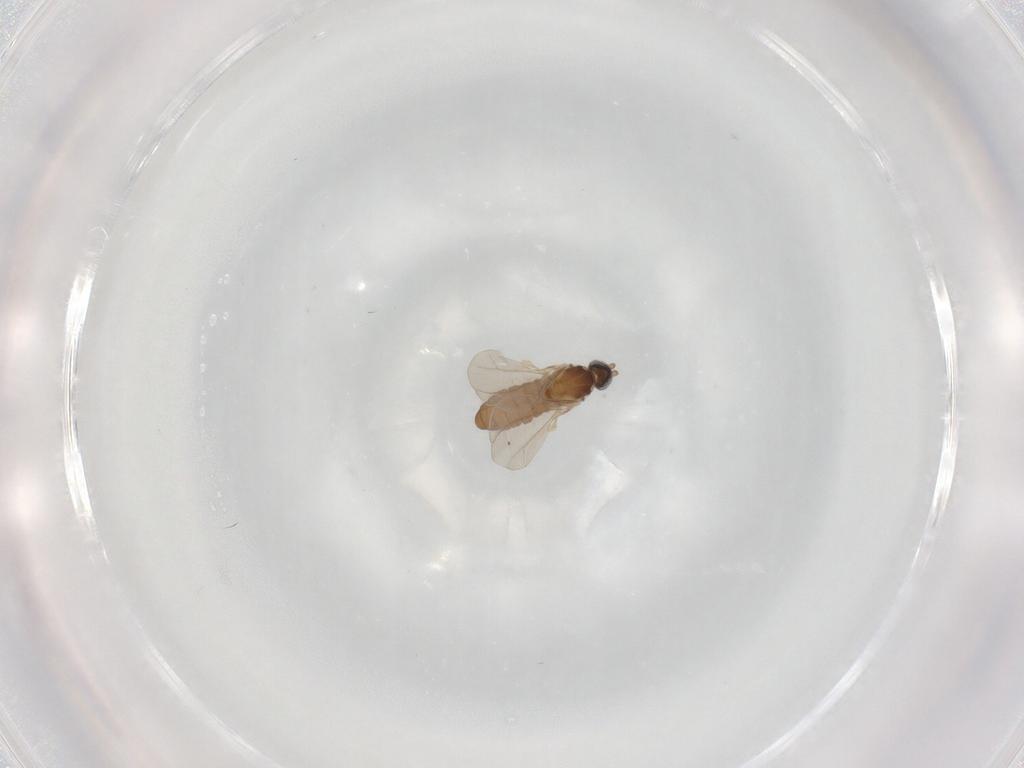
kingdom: Animalia
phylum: Arthropoda
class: Insecta
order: Diptera
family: Cecidomyiidae
